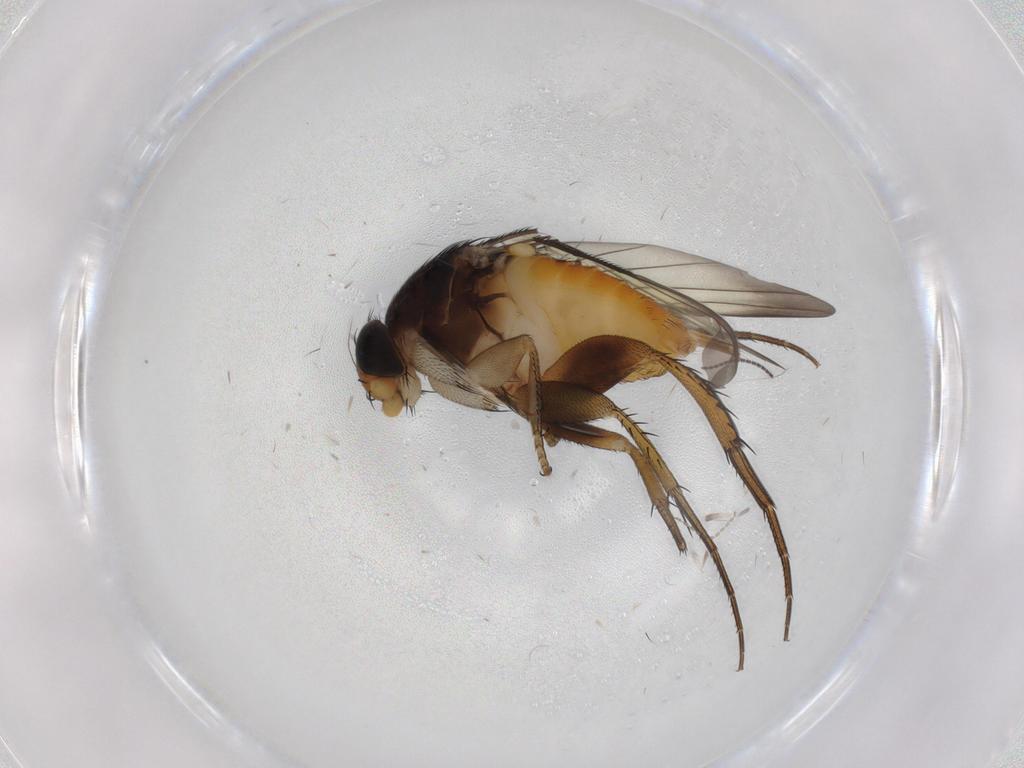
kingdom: Animalia
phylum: Arthropoda
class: Insecta
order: Diptera
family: Phoridae
